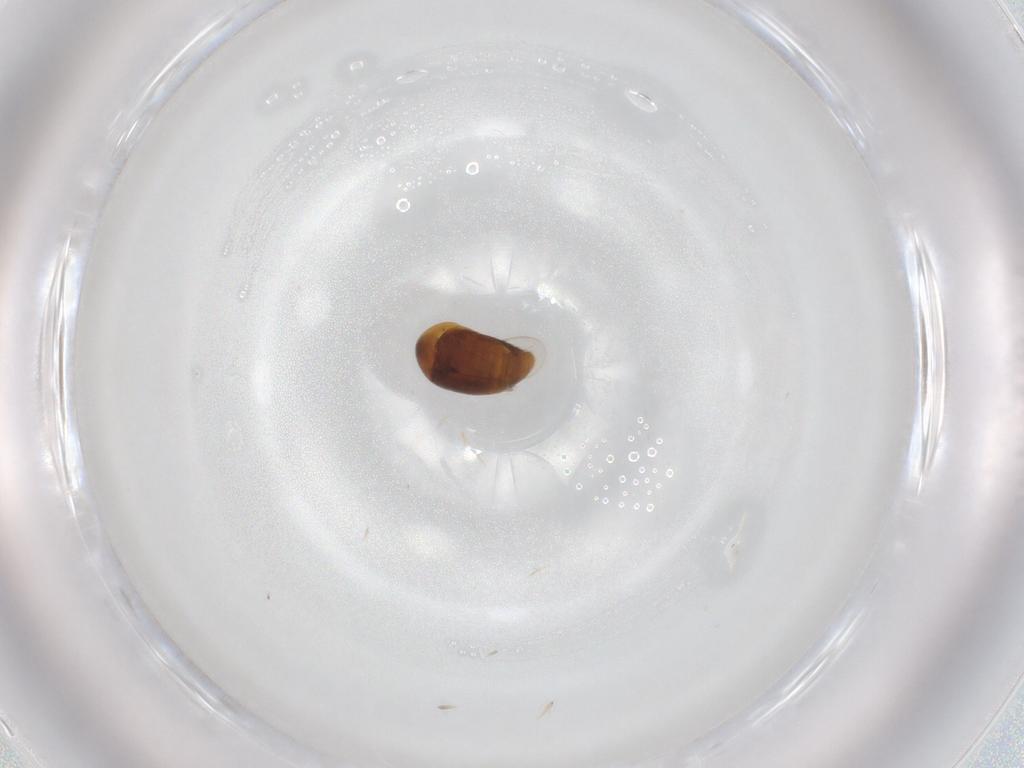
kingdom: Animalia
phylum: Arthropoda
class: Insecta
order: Coleoptera
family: Corylophidae
